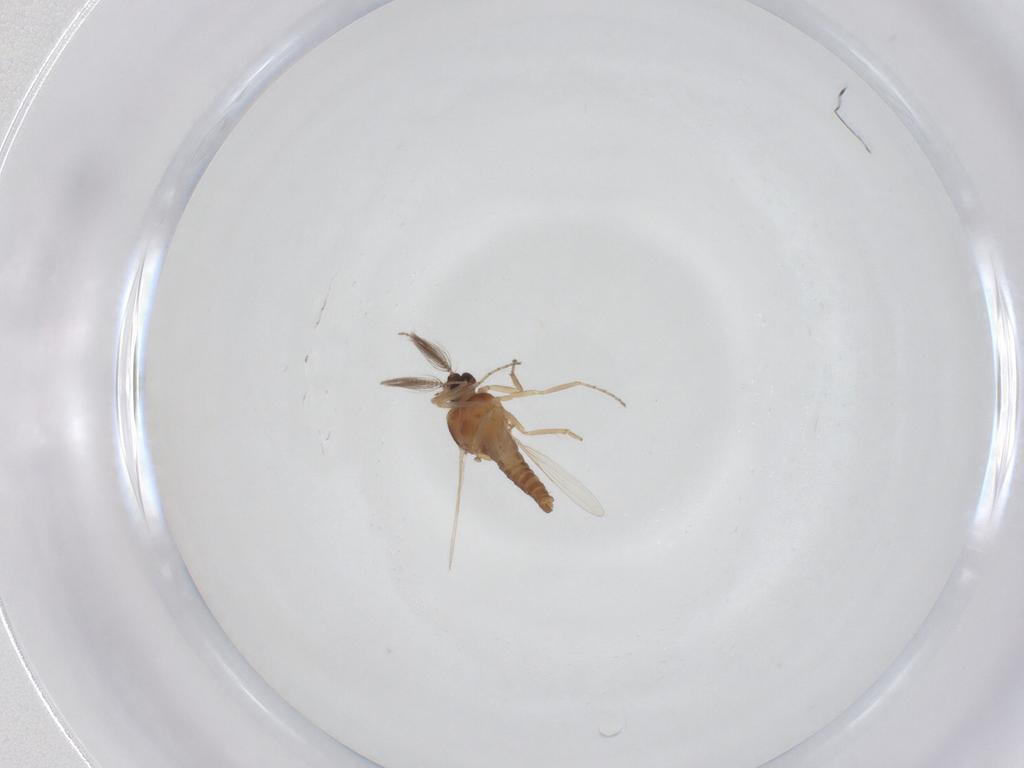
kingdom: Animalia
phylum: Arthropoda
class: Insecta
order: Diptera
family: Ceratopogonidae
